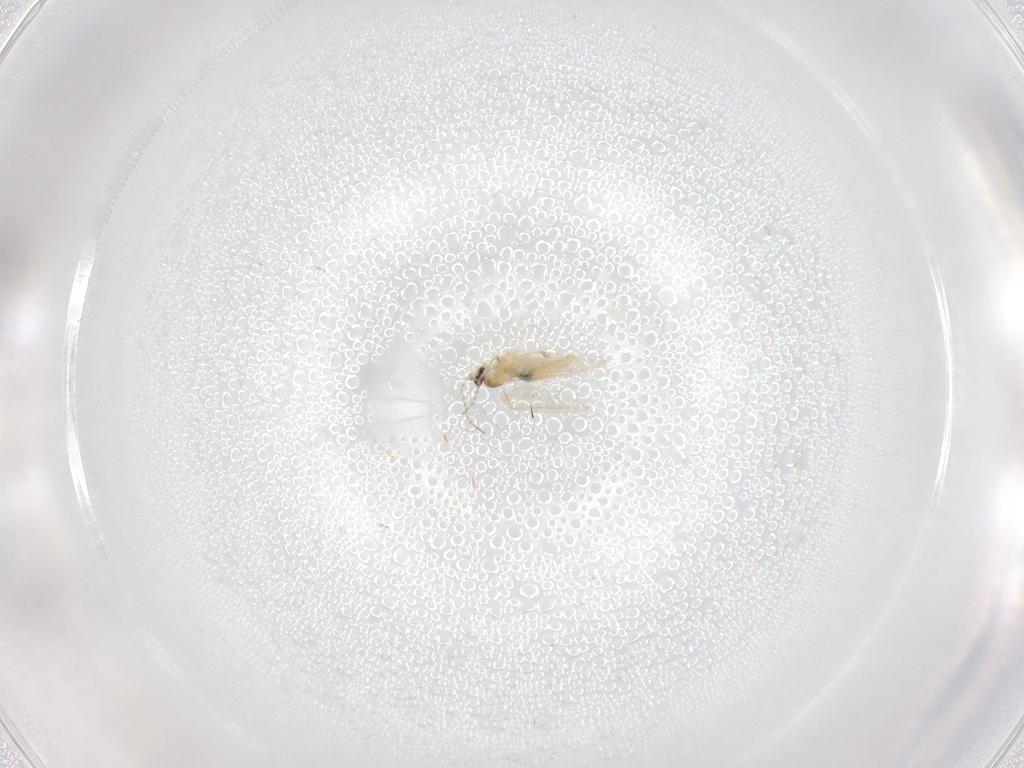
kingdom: Animalia
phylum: Arthropoda
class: Insecta
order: Diptera
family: Cecidomyiidae
